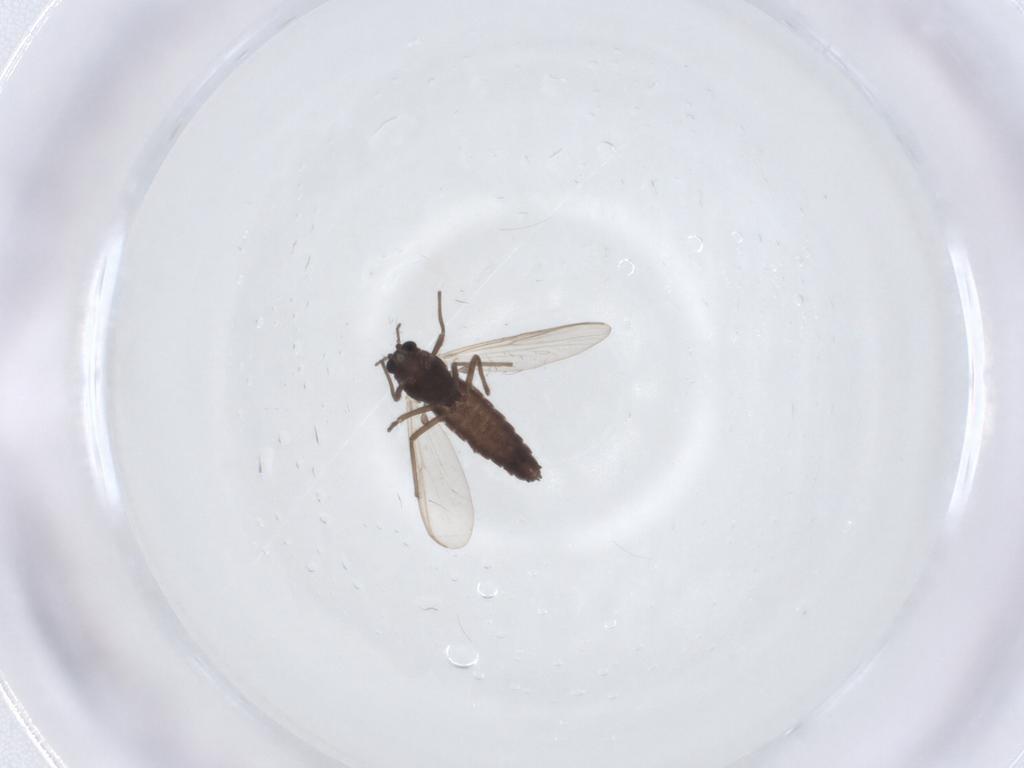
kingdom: Animalia
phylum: Arthropoda
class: Insecta
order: Diptera
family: Chironomidae
